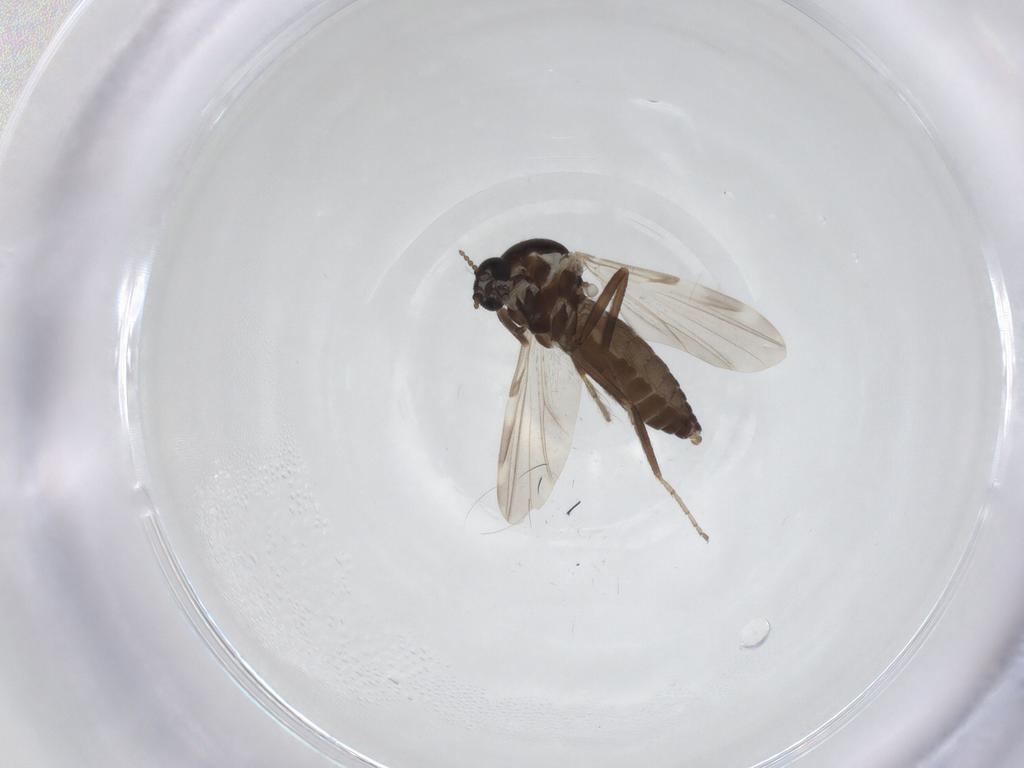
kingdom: Animalia
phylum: Arthropoda
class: Insecta
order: Diptera
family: Ceratopogonidae
